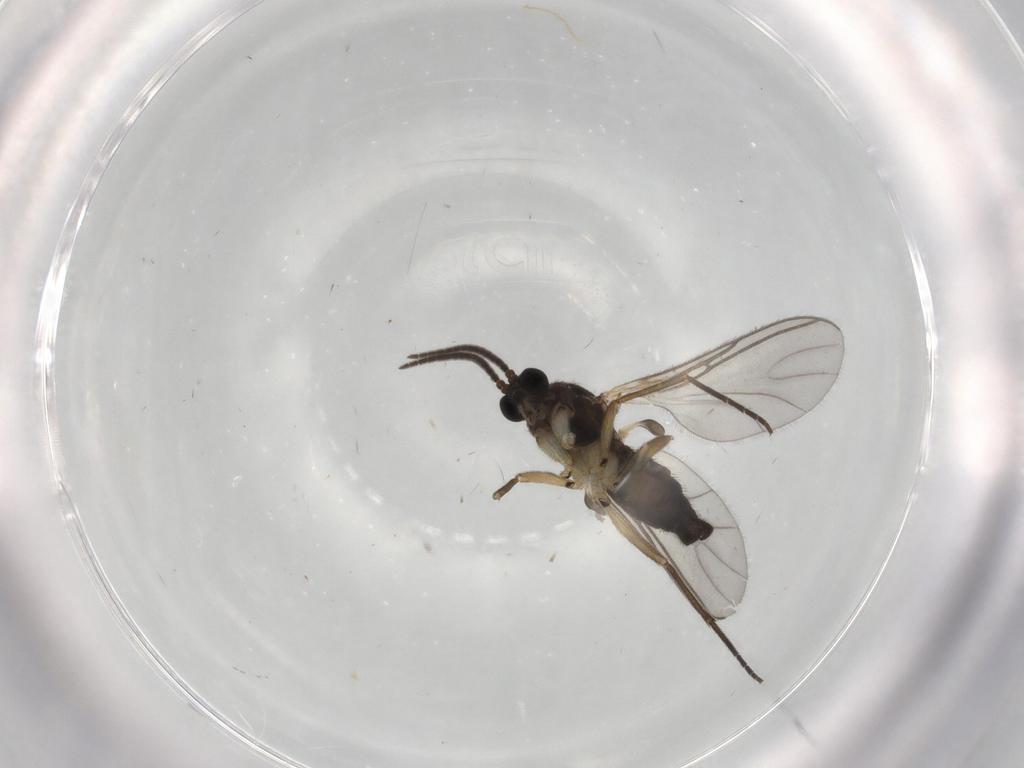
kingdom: Animalia
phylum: Arthropoda
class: Insecta
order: Diptera
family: Sciaridae
